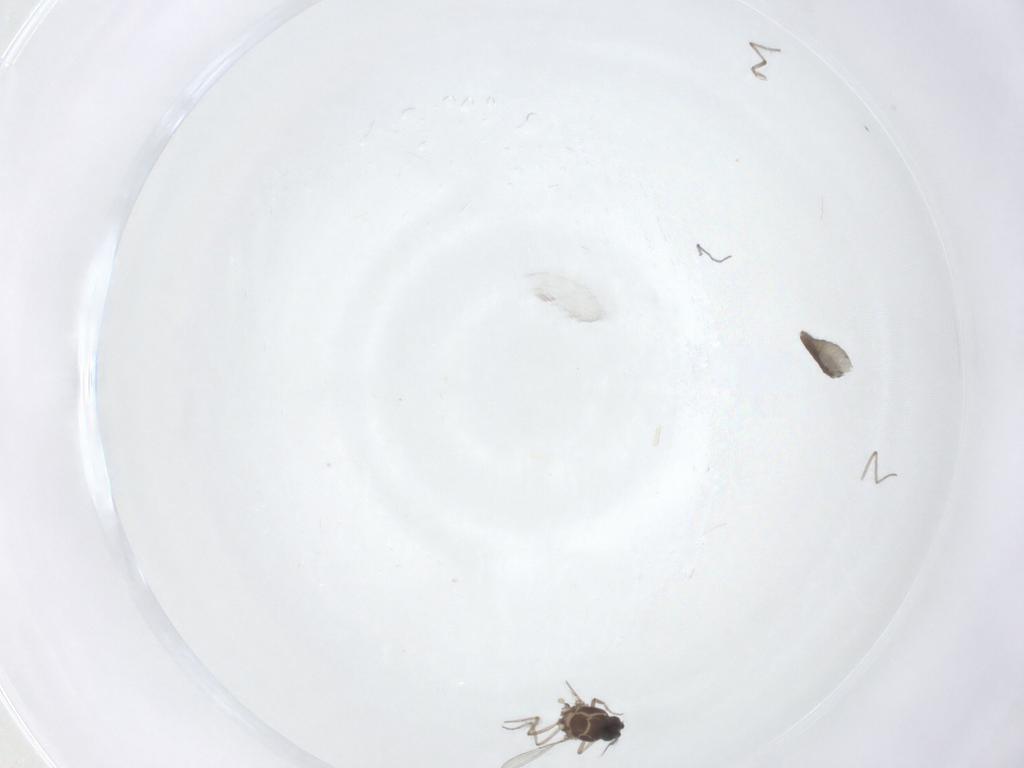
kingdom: Animalia
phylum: Arthropoda
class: Insecta
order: Diptera
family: Ceratopogonidae
